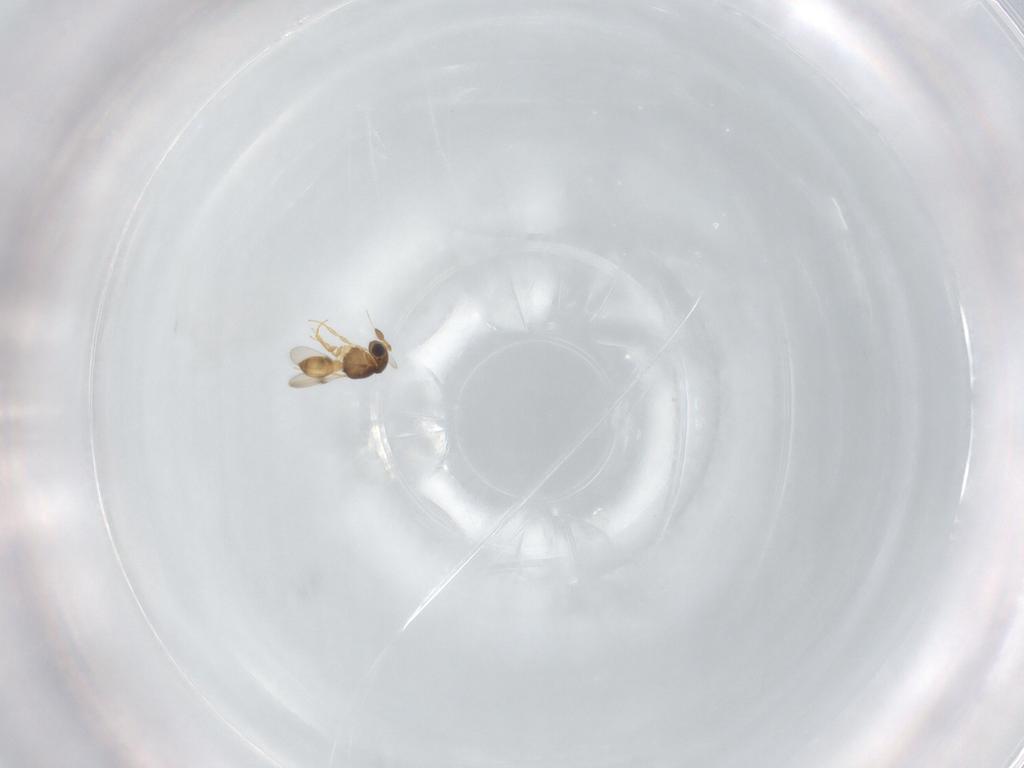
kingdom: Animalia
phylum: Arthropoda
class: Insecta
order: Hymenoptera
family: Scelionidae
